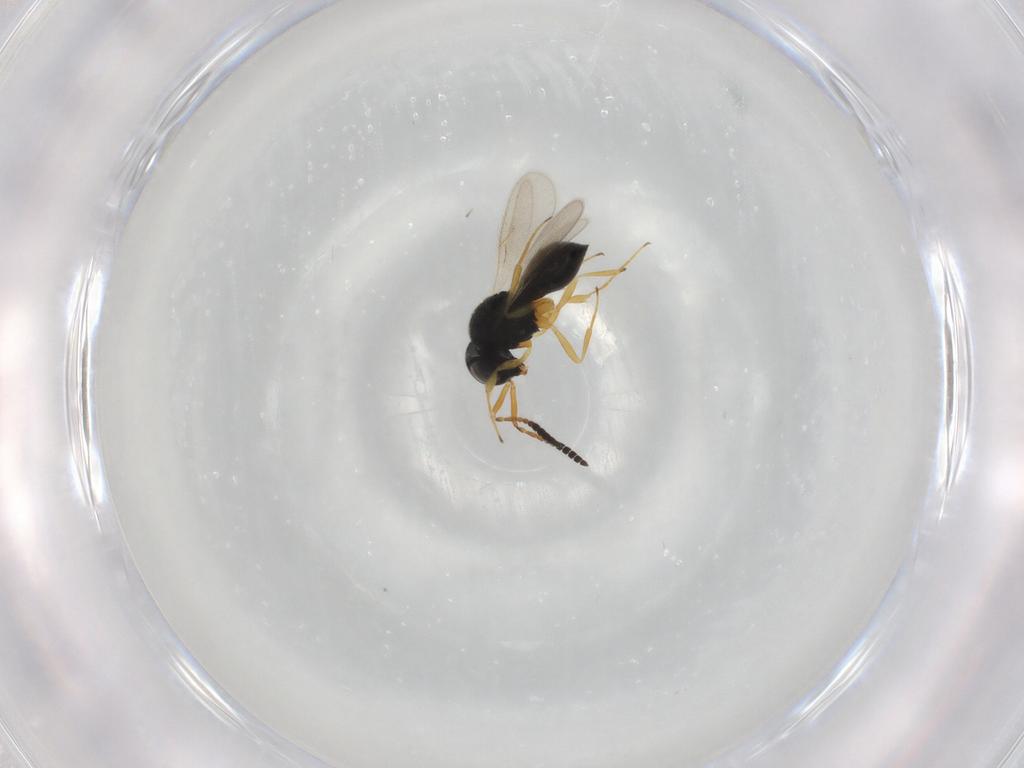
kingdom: Animalia
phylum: Arthropoda
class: Insecta
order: Hymenoptera
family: Scelionidae
